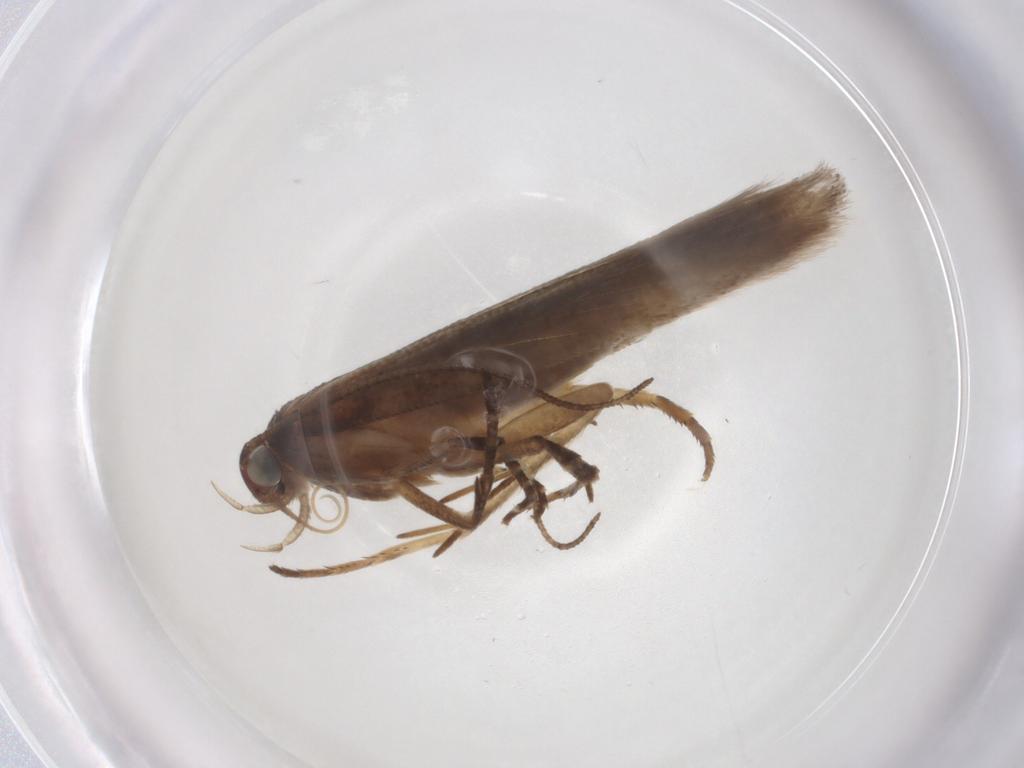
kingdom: Animalia
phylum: Arthropoda
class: Insecta
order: Lepidoptera
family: Gelechiidae
